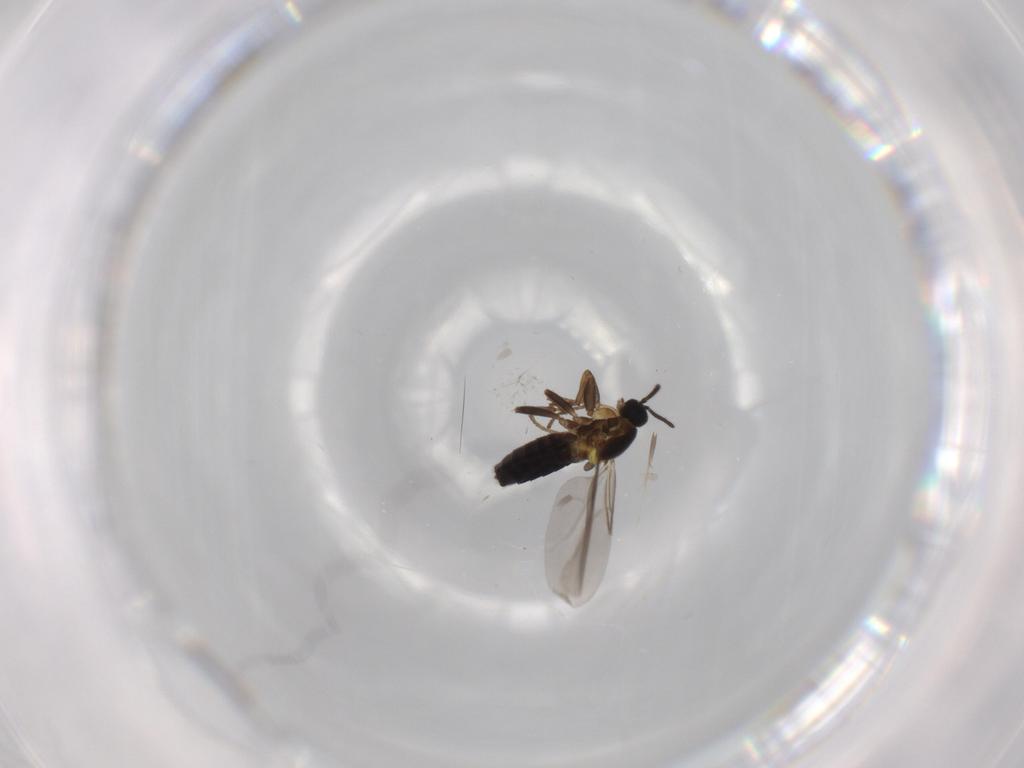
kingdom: Animalia
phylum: Arthropoda
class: Insecta
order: Diptera
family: Scatopsidae
